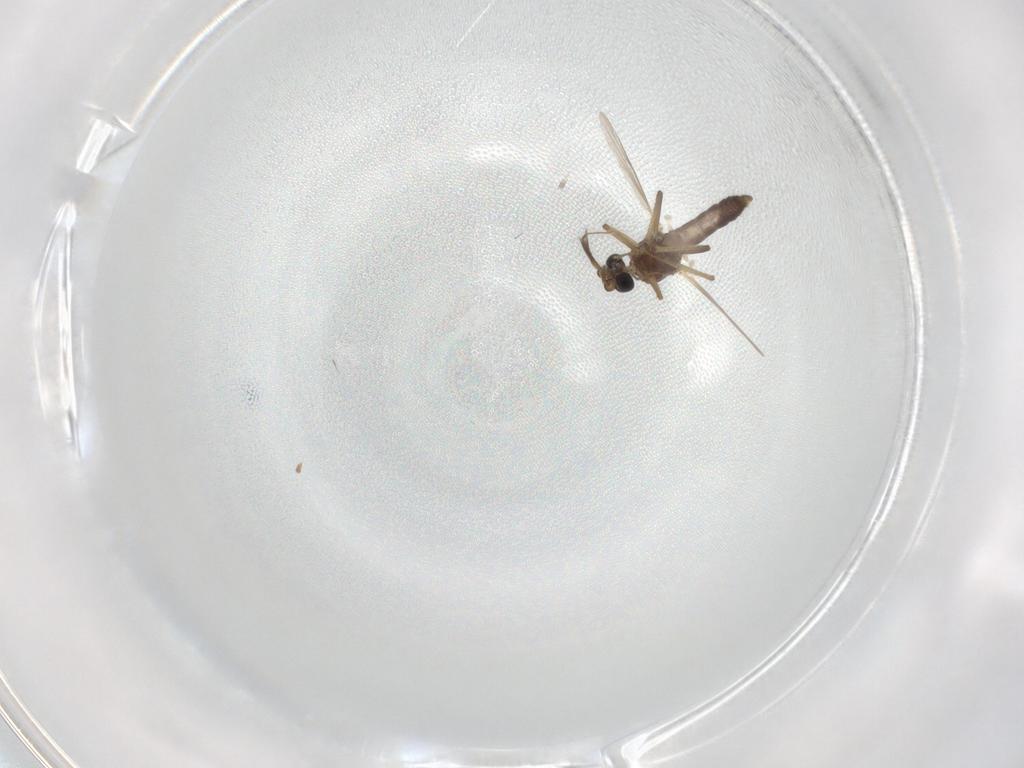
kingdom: Animalia
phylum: Arthropoda
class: Insecta
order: Diptera
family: Ceratopogonidae
